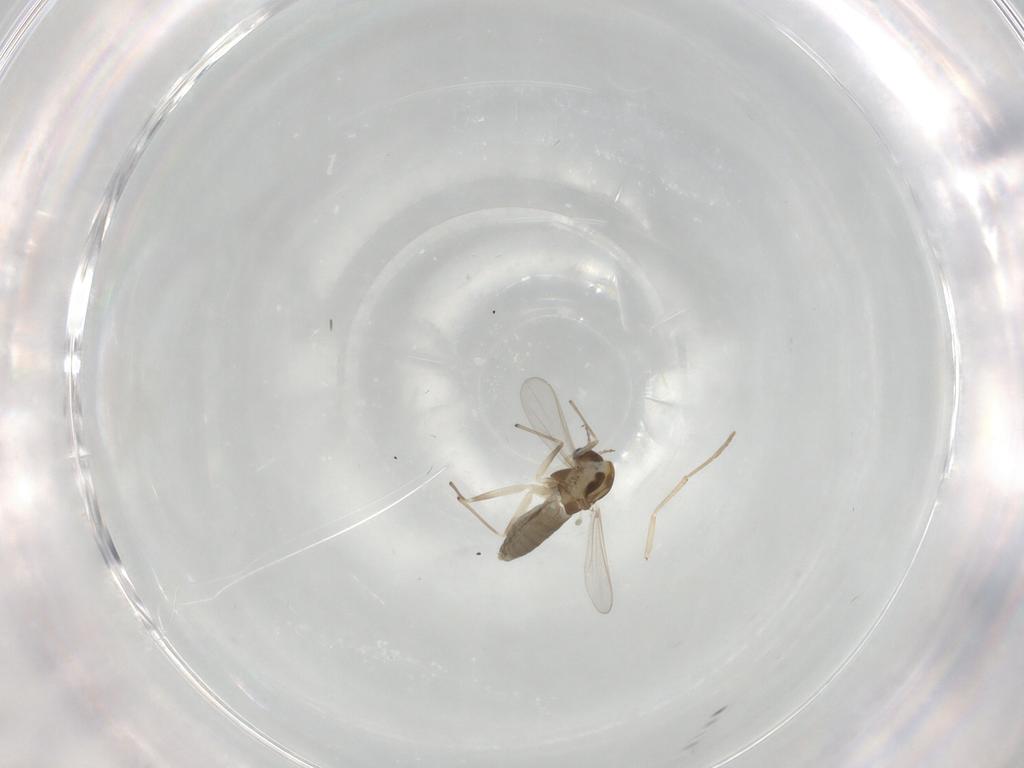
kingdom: Animalia
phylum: Arthropoda
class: Insecta
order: Diptera
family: Chironomidae
